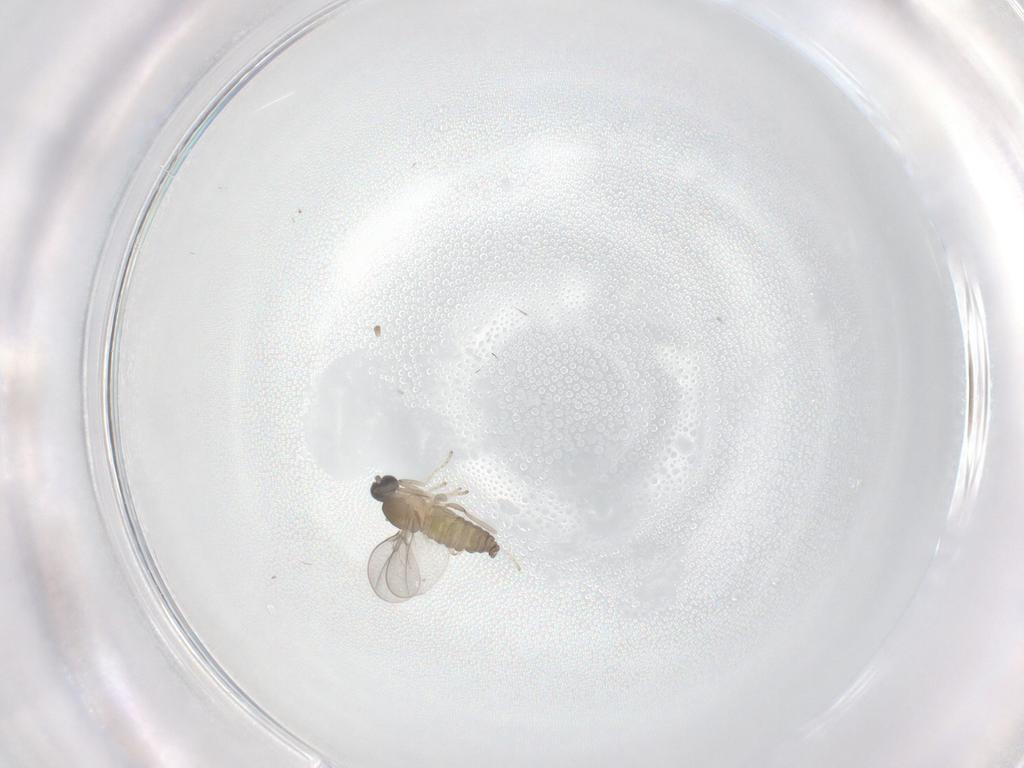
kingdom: Animalia
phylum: Arthropoda
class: Insecta
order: Diptera
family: Cecidomyiidae
